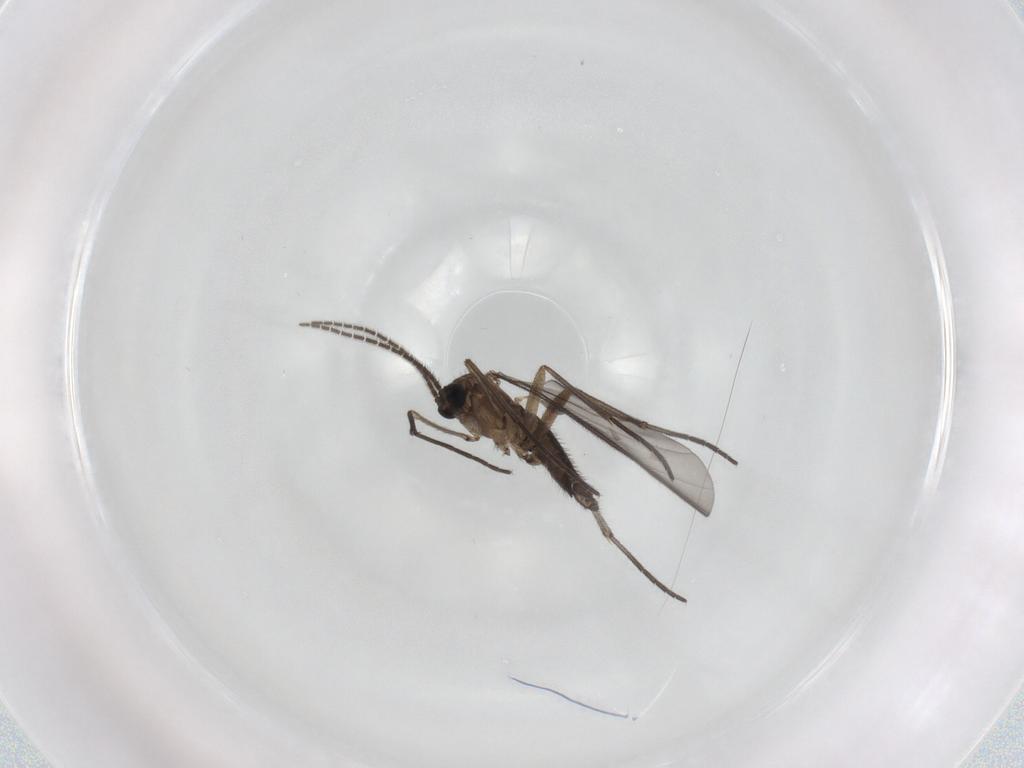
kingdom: Animalia
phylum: Arthropoda
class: Insecta
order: Diptera
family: Sciaridae
